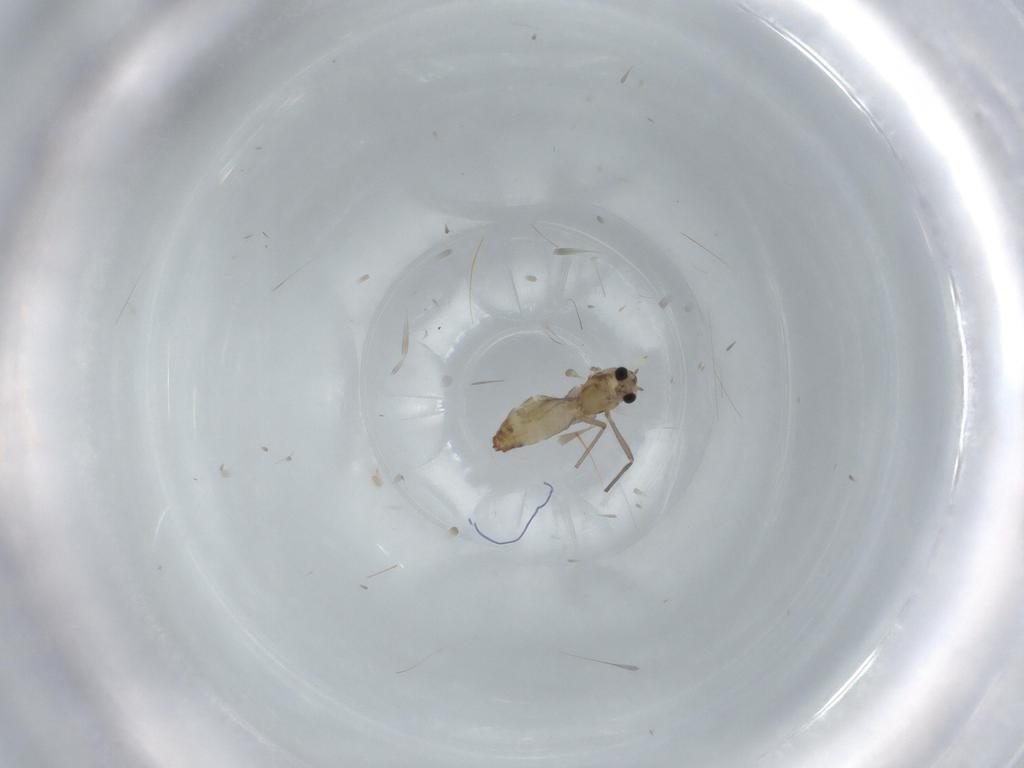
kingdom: Animalia
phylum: Arthropoda
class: Insecta
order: Diptera
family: Chironomidae
